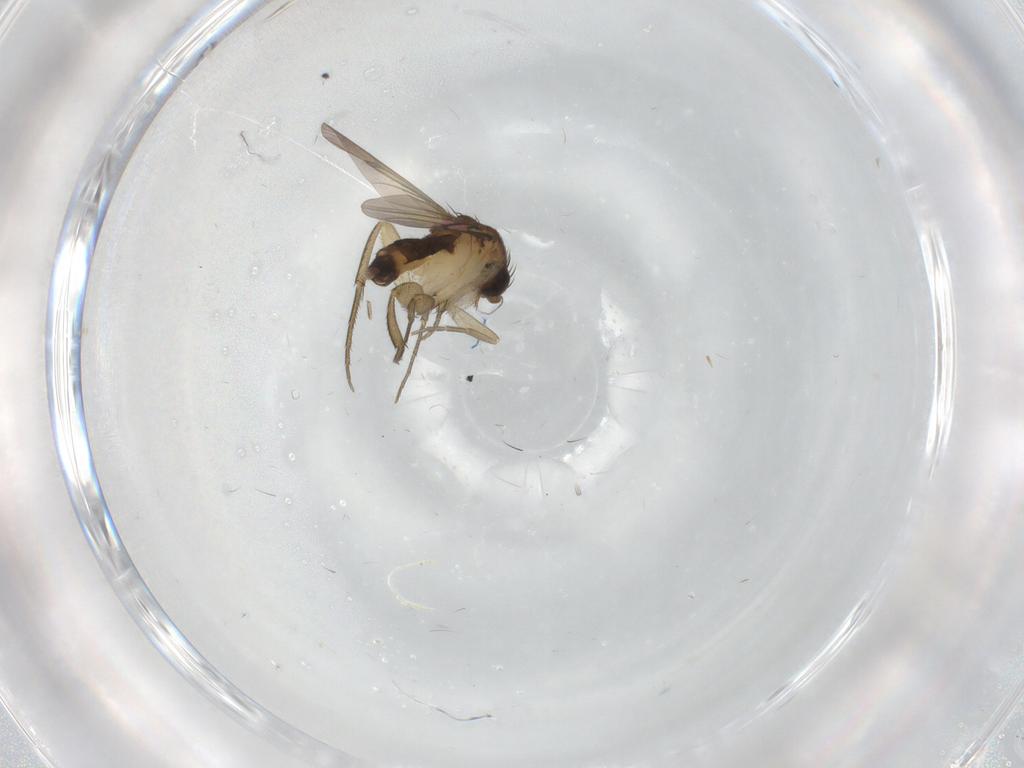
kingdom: Animalia
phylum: Arthropoda
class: Insecta
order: Diptera
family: Mycetophilidae
